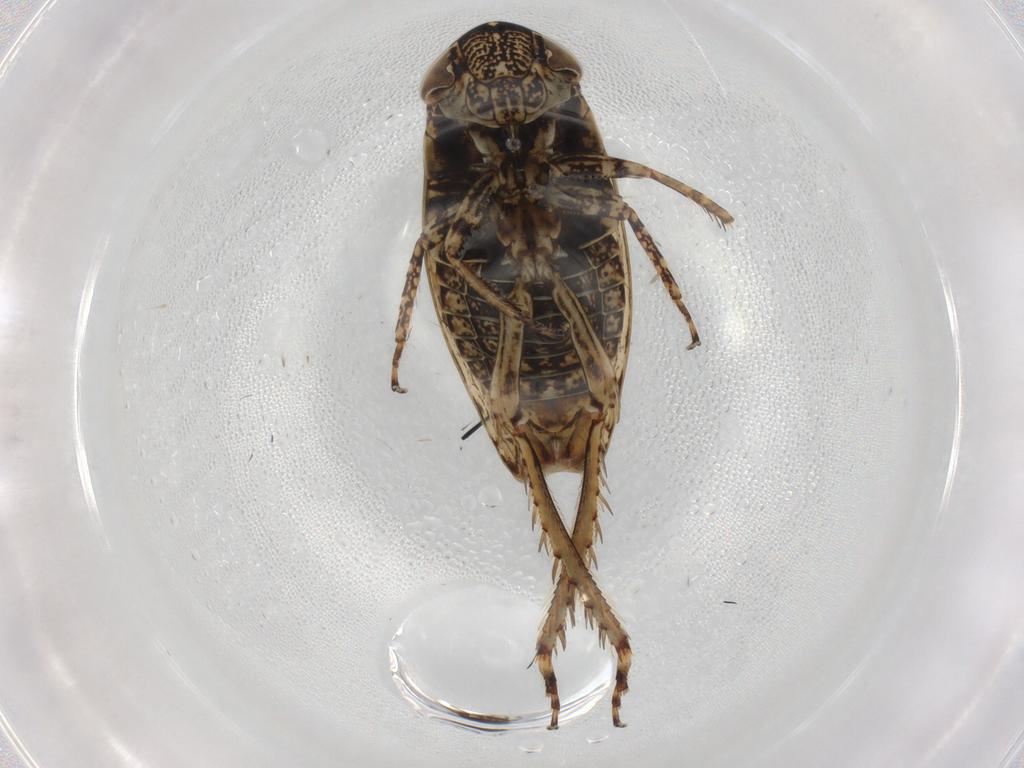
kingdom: Animalia
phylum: Arthropoda
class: Insecta
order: Hemiptera
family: Cicadellidae
